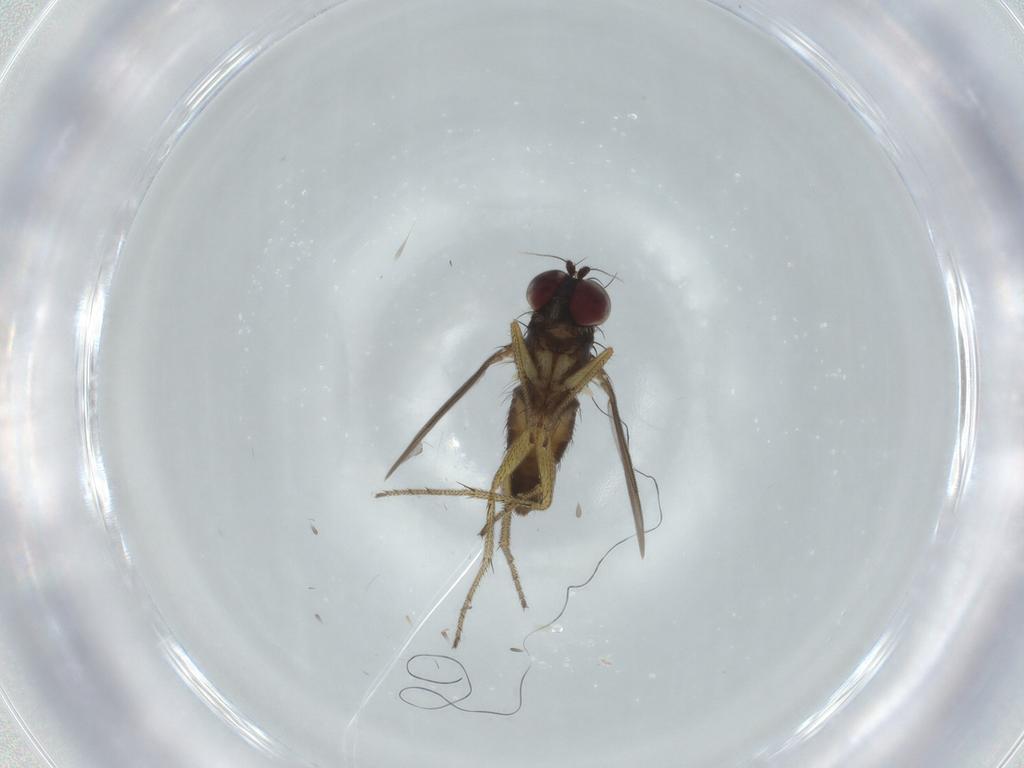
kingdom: Animalia
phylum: Arthropoda
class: Insecta
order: Diptera
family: Dolichopodidae
